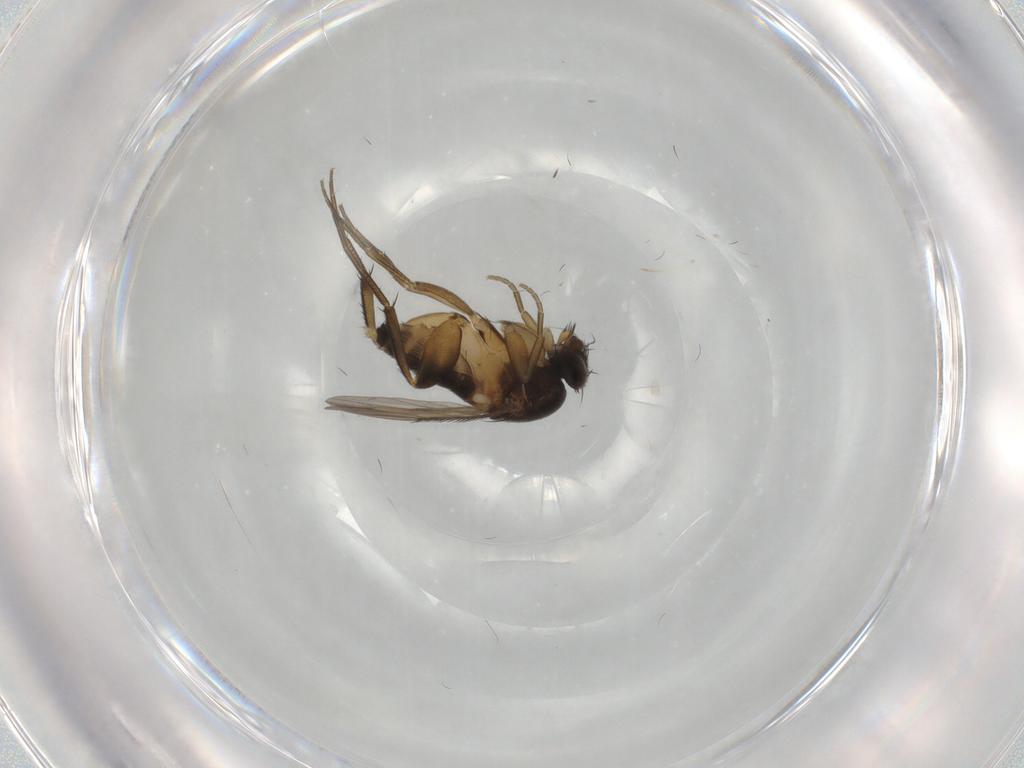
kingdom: Animalia
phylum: Arthropoda
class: Insecta
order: Diptera
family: Phoridae
